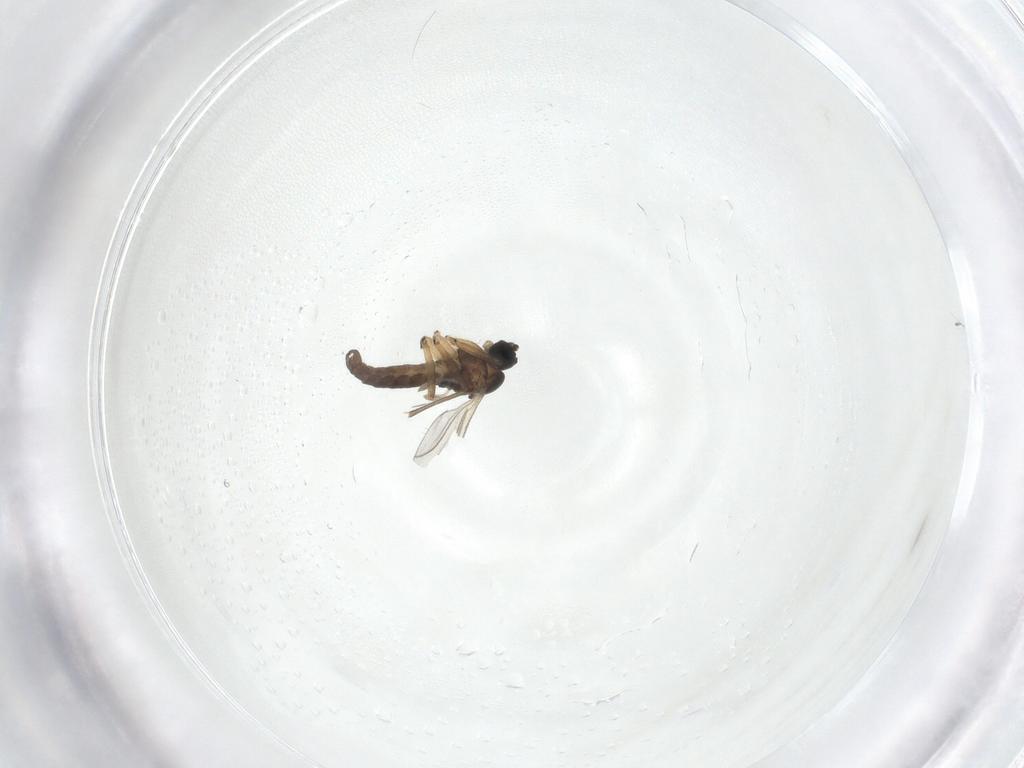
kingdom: Animalia
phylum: Arthropoda
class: Insecta
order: Diptera
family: Sciaridae
